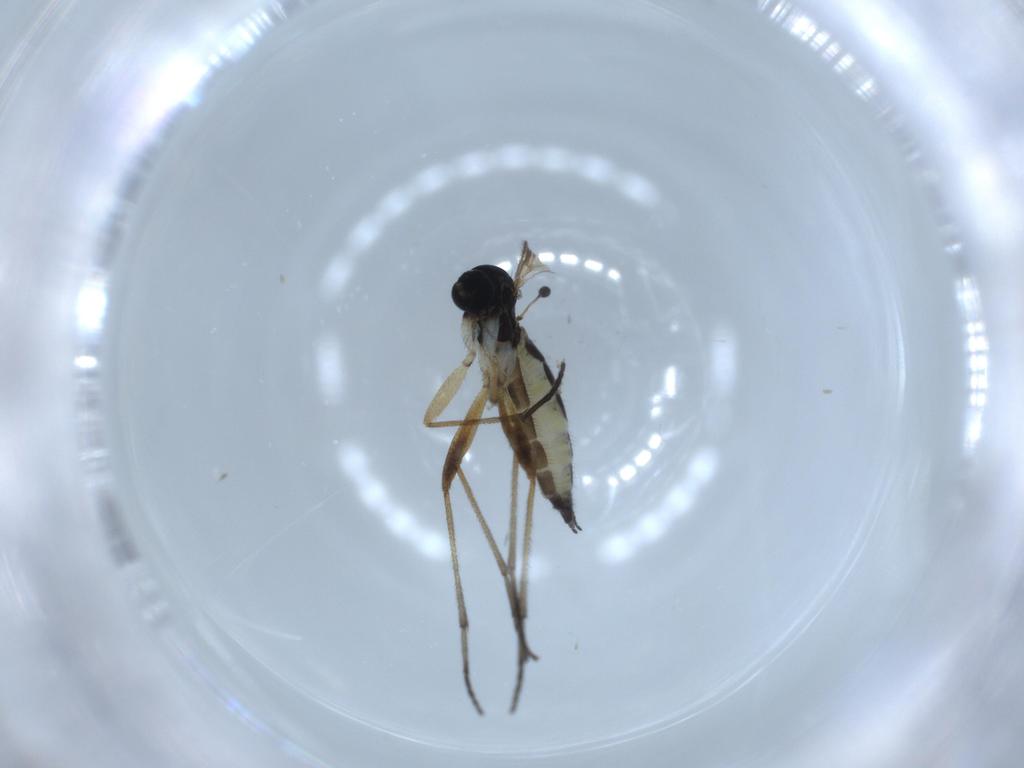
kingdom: Animalia
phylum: Arthropoda
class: Insecta
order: Diptera
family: Sciaridae
